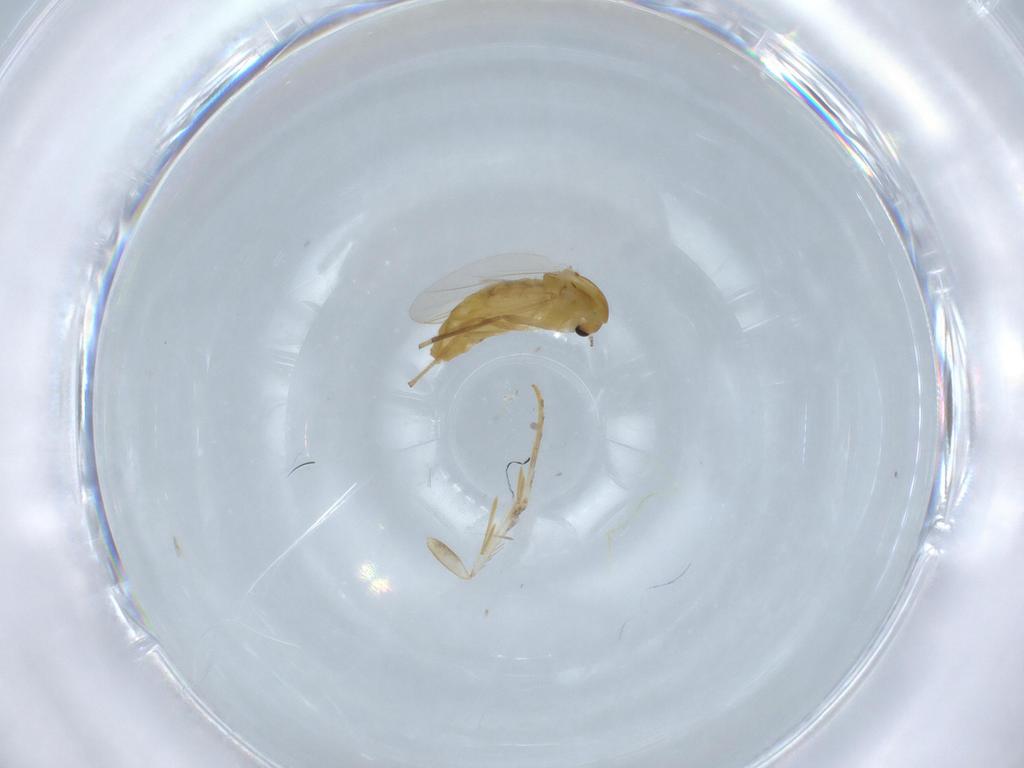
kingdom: Animalia
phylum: Arthropoda
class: Insecta
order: Diptera
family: Chironomidae
